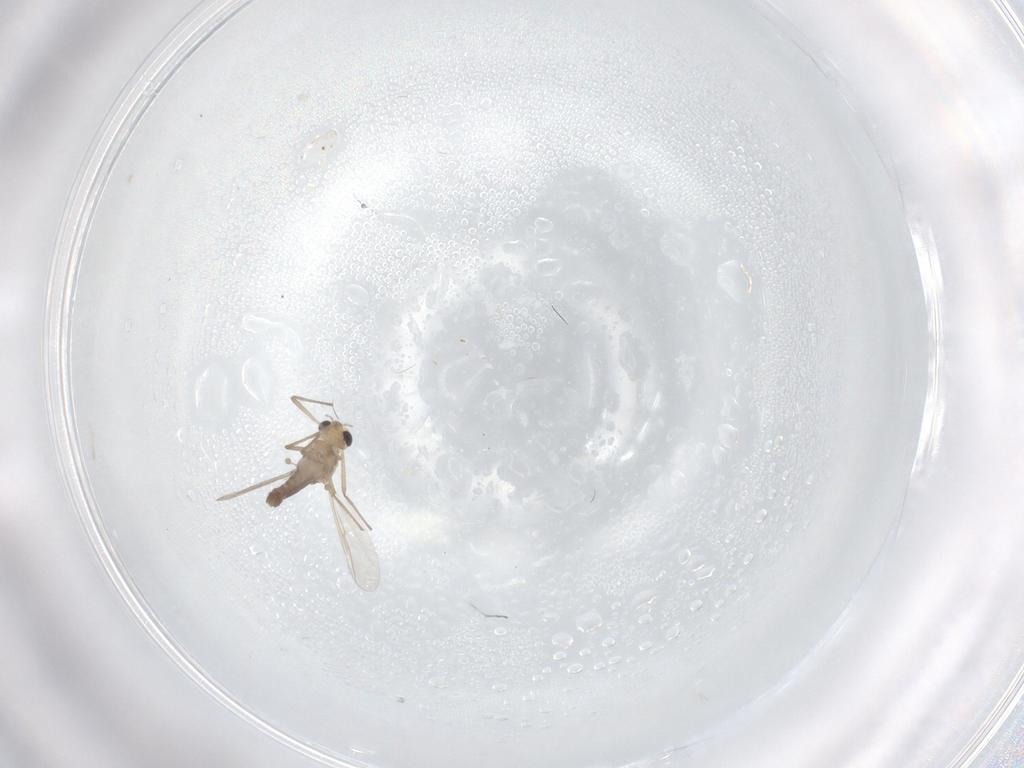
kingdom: Animalia
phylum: Arthropoda
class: Insecta
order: Diptera
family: Chironomidae
